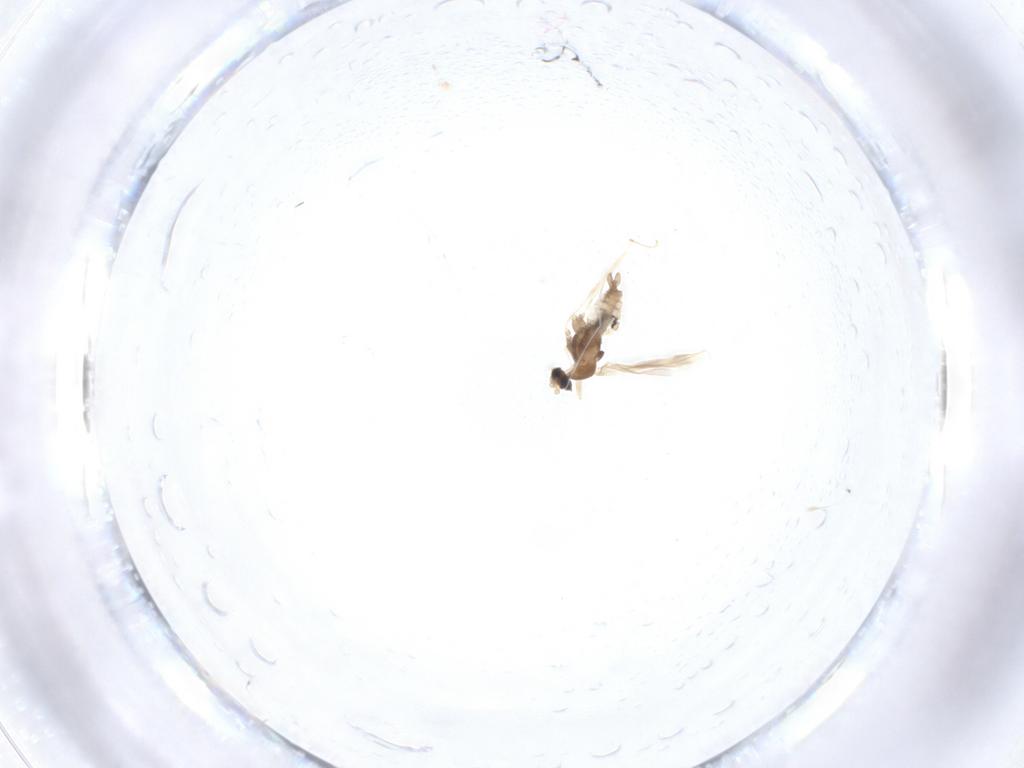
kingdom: Animalia
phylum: Arthropoda
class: Insecta
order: Diptera
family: Cecidomyiidae
